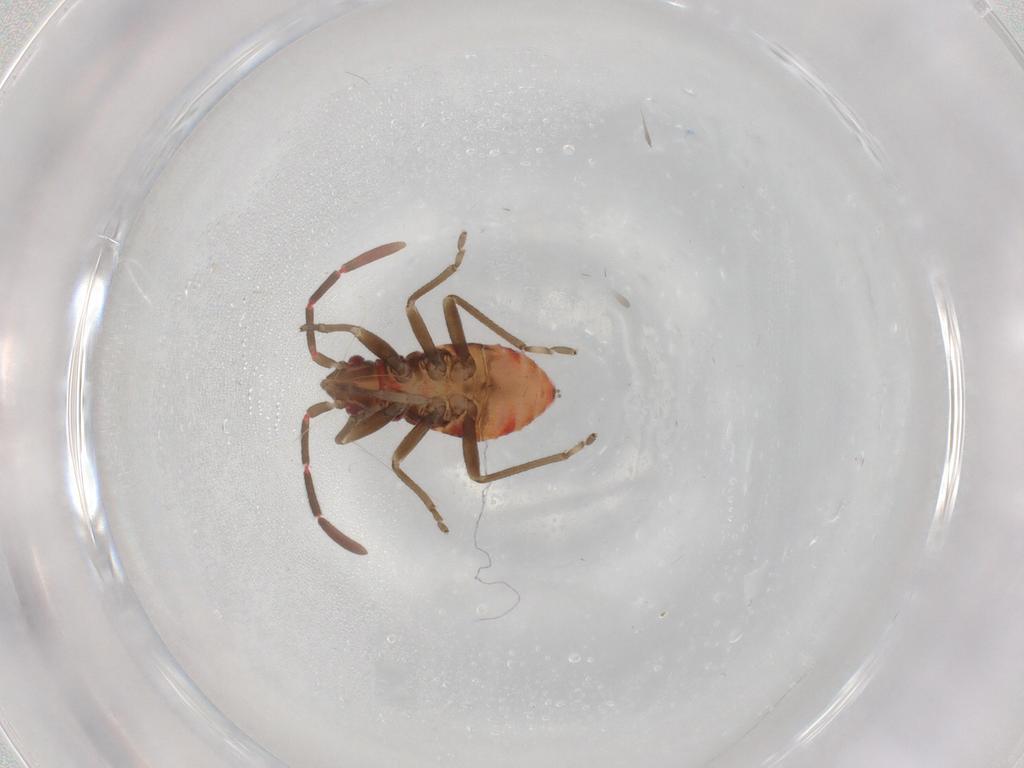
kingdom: Animalia
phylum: Arthropoda
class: Insecta
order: Hemiptera
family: Rhyparochromidae
